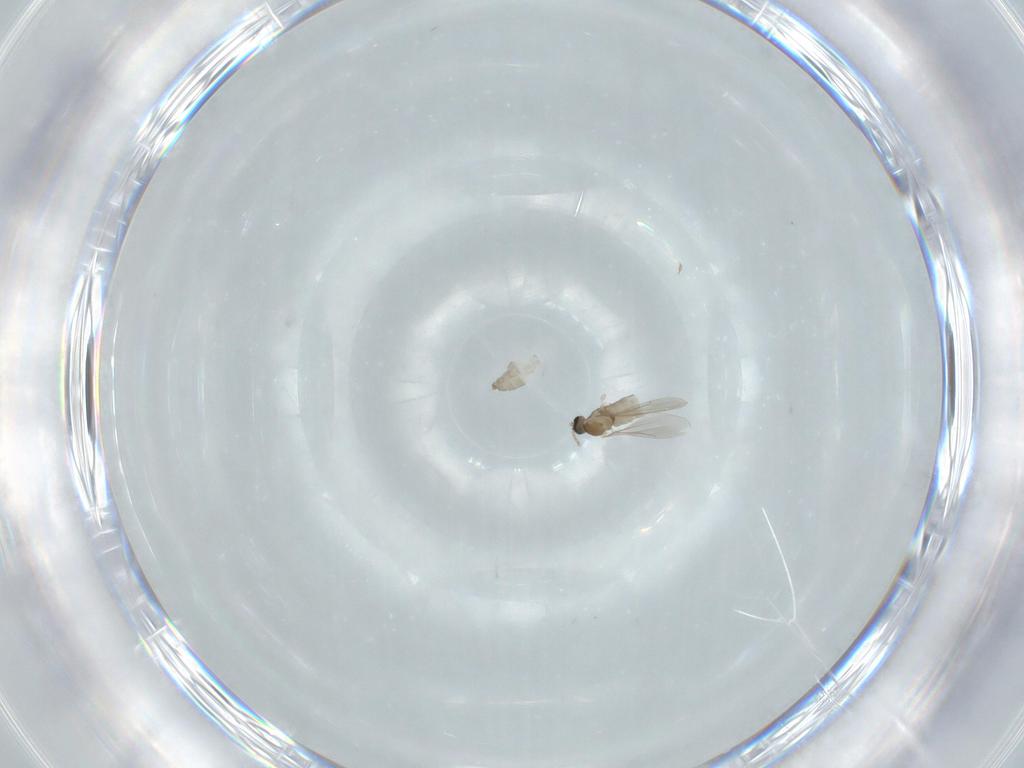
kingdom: Animalia
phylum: Arthropoda
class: Insecta
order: Diptera
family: Cecidomyiidae
